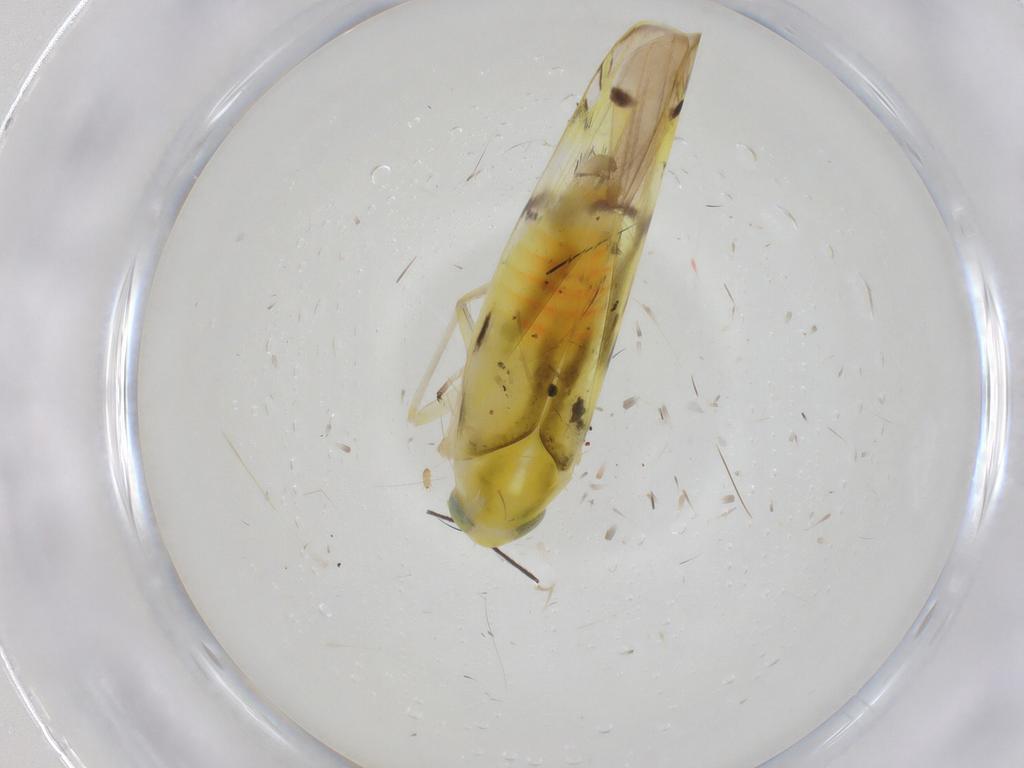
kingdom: Animalia
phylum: Arthropoda
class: Insecta
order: Hemiptera
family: Cicadellidae
